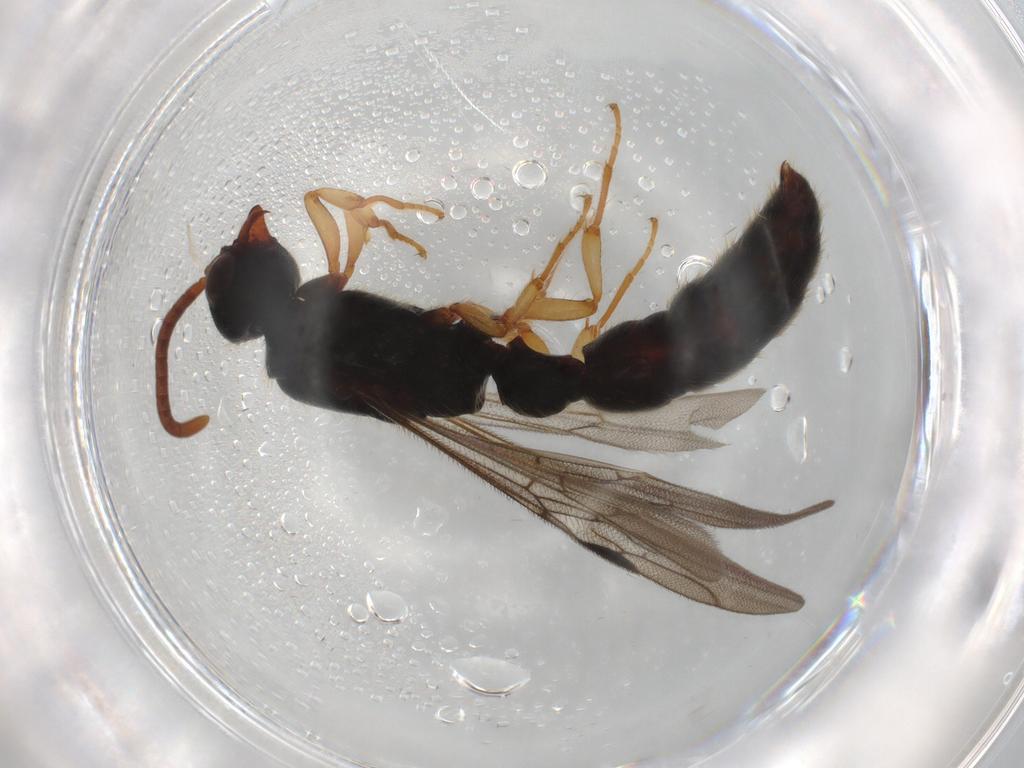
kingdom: Animalia
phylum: Arthropoda
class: Insecta
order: Hymenoptera
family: Formicidae
